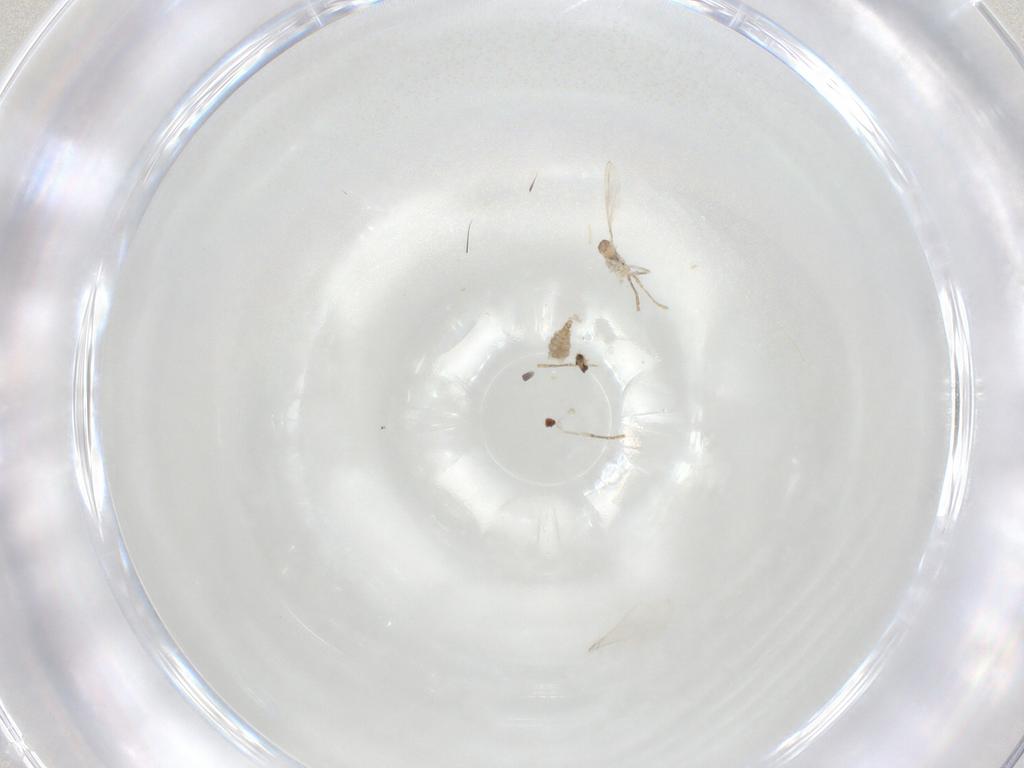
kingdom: Animalia
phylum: Arthropoda
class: Insecta
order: Diptera
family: Cecidomyiidae
